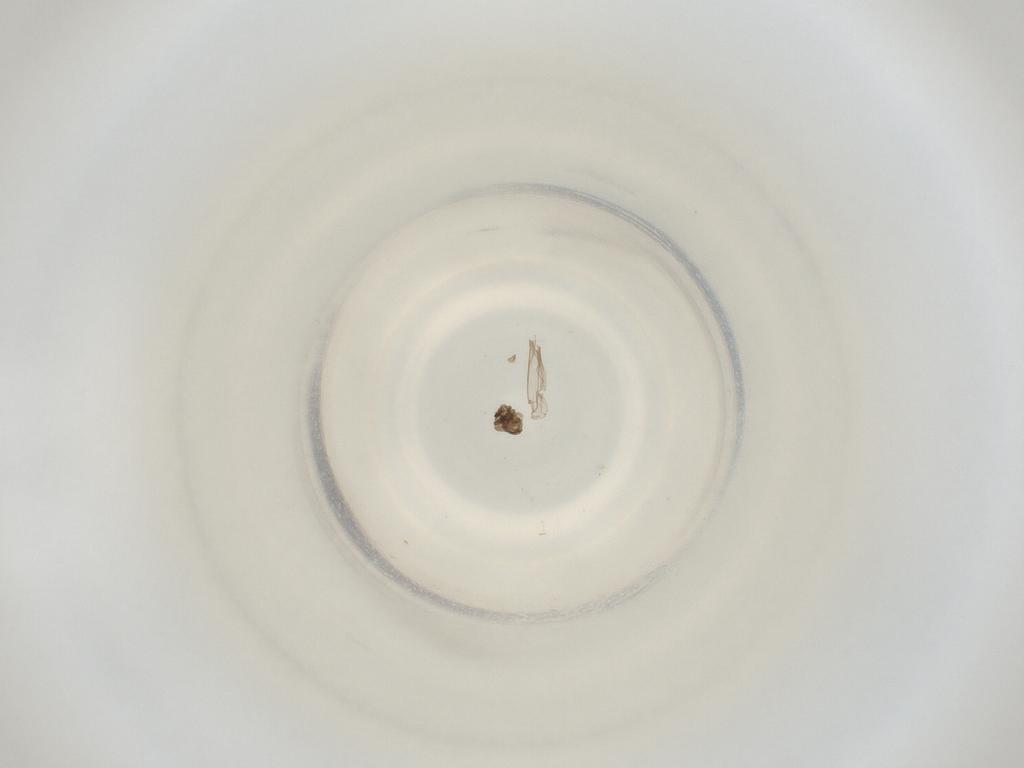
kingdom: Animalia
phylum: Arthropoda
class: Insecta
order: Diptera
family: Cecidomyiidae
